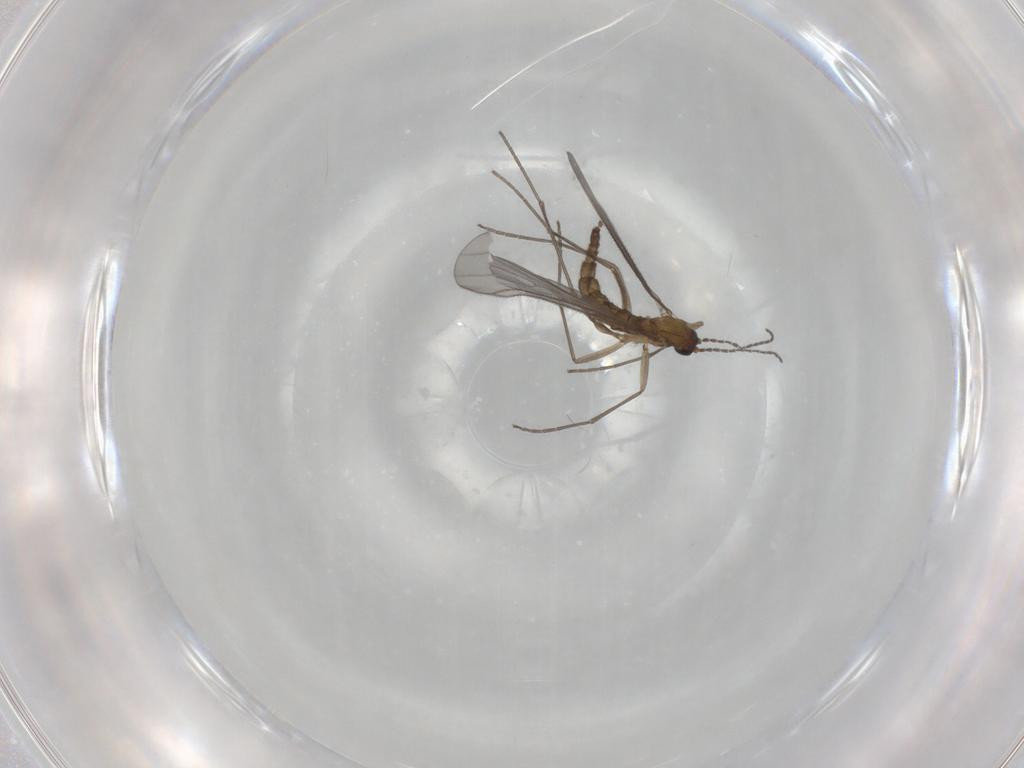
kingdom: Animalia
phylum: Arthropoda
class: Insecta
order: Diptera
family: Sciaridae
